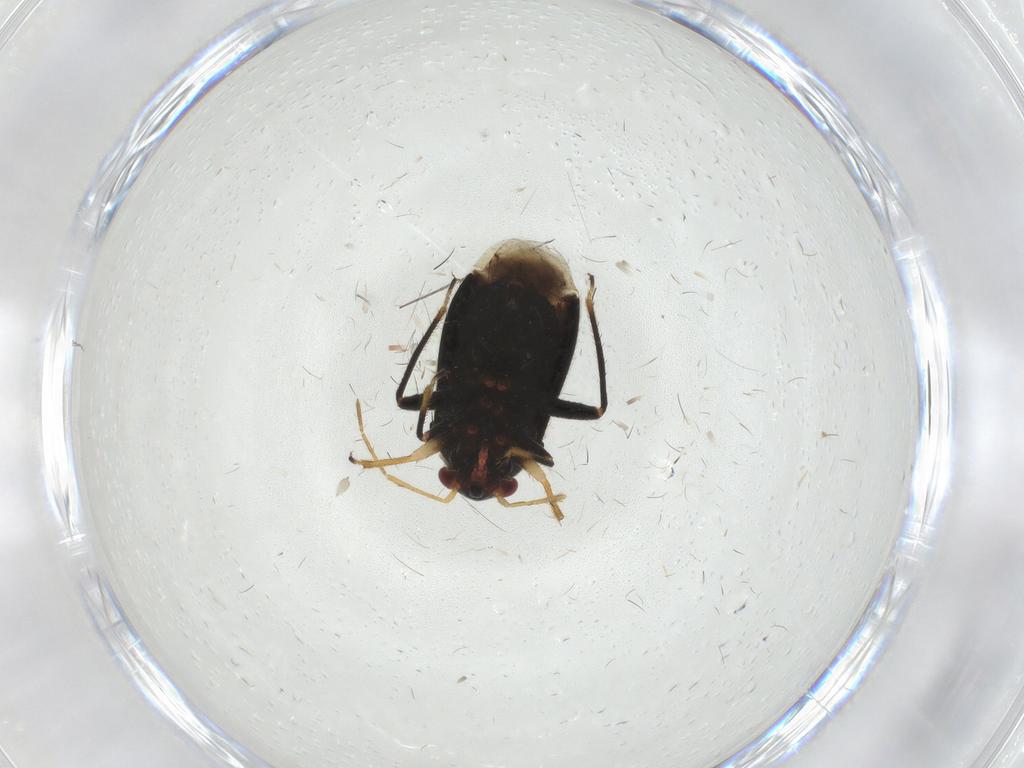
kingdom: Animalia
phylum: Arthropoda
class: Insecta
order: Hemiptera
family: Miridae
